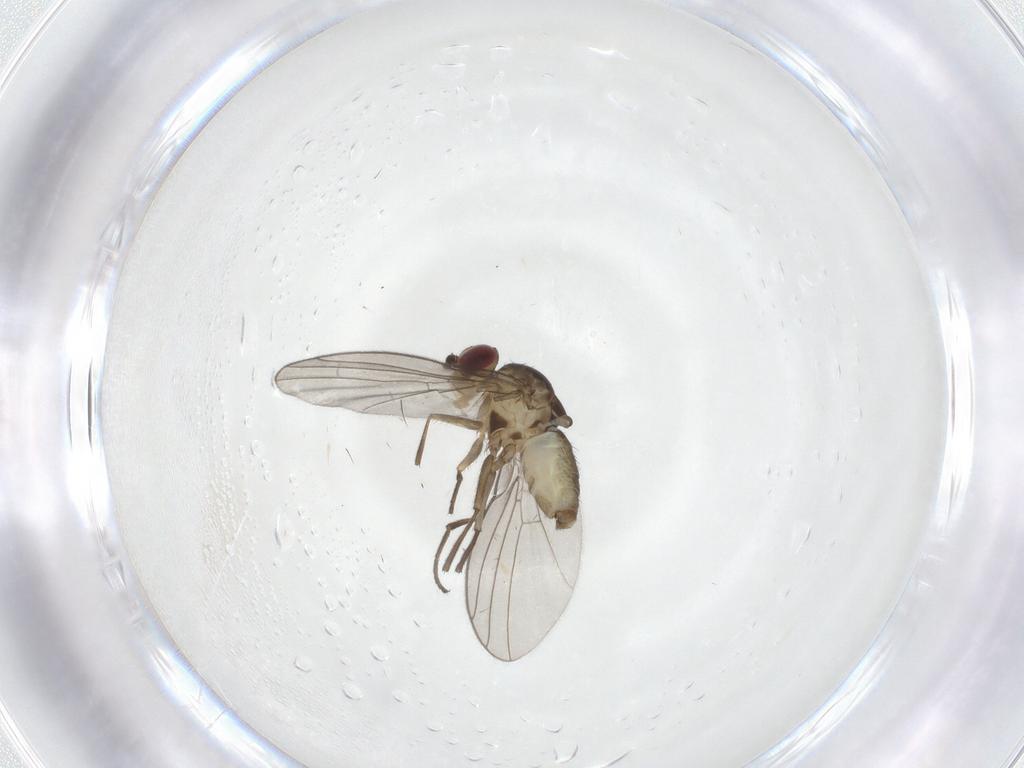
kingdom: Animalia
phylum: Arthropoda
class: Insecta
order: Diptera
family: Agromyzidae
